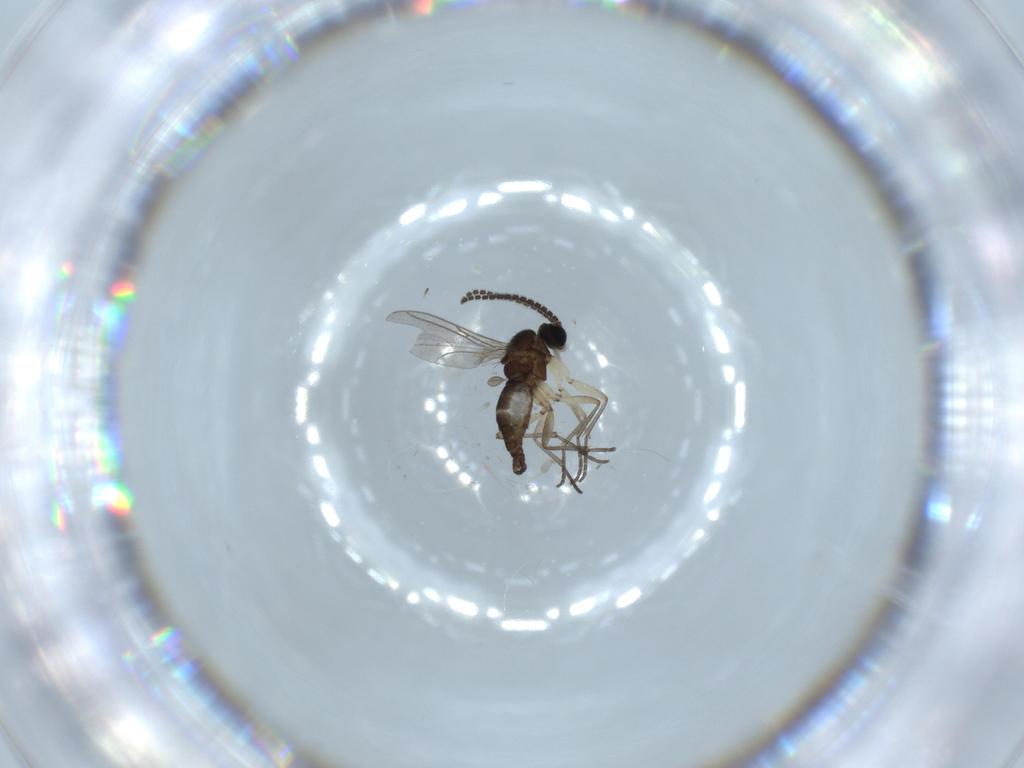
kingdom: Animalia
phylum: Arthropoda
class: Insecta
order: Diptera
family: Sciaridae
